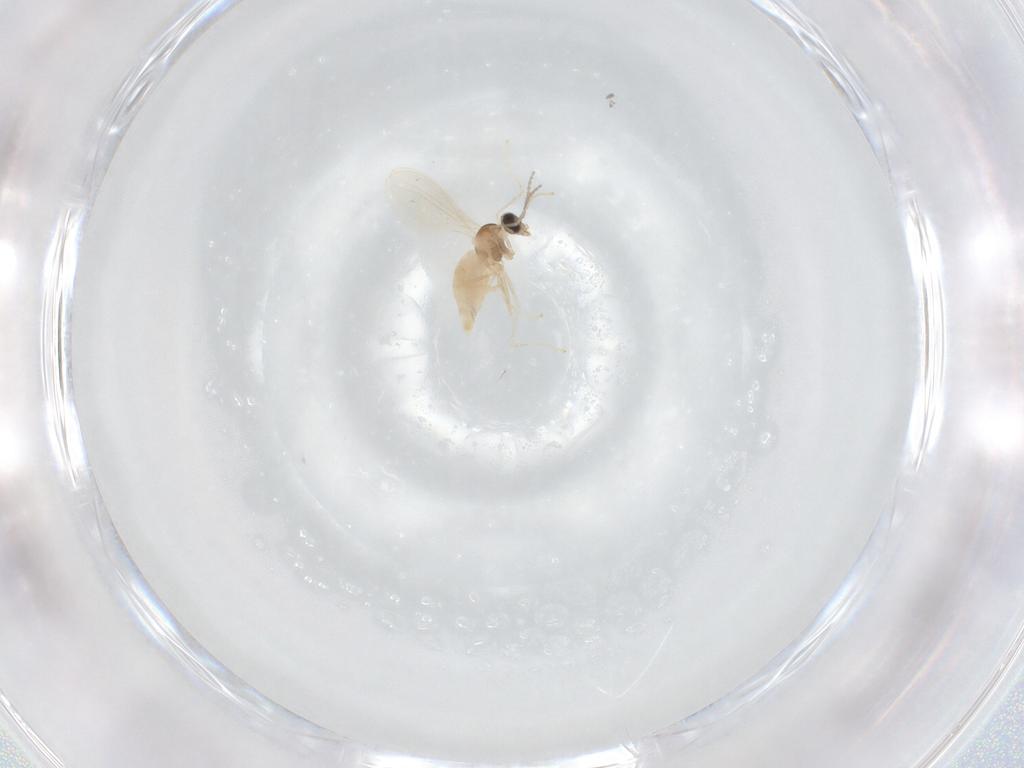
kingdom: Animalia
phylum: Arthropoda
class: Insecta
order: Diptera
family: Cecidomyiidae
